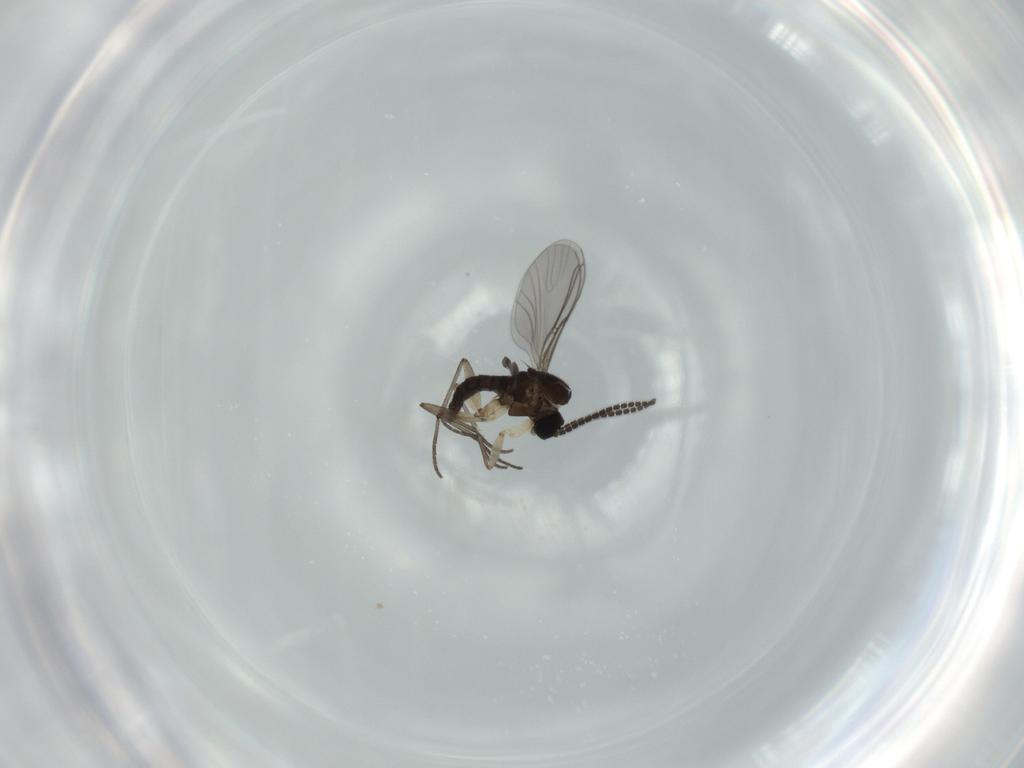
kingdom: Animalia
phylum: Arthropoda
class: Insecta
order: Diptera
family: Sciaridae
